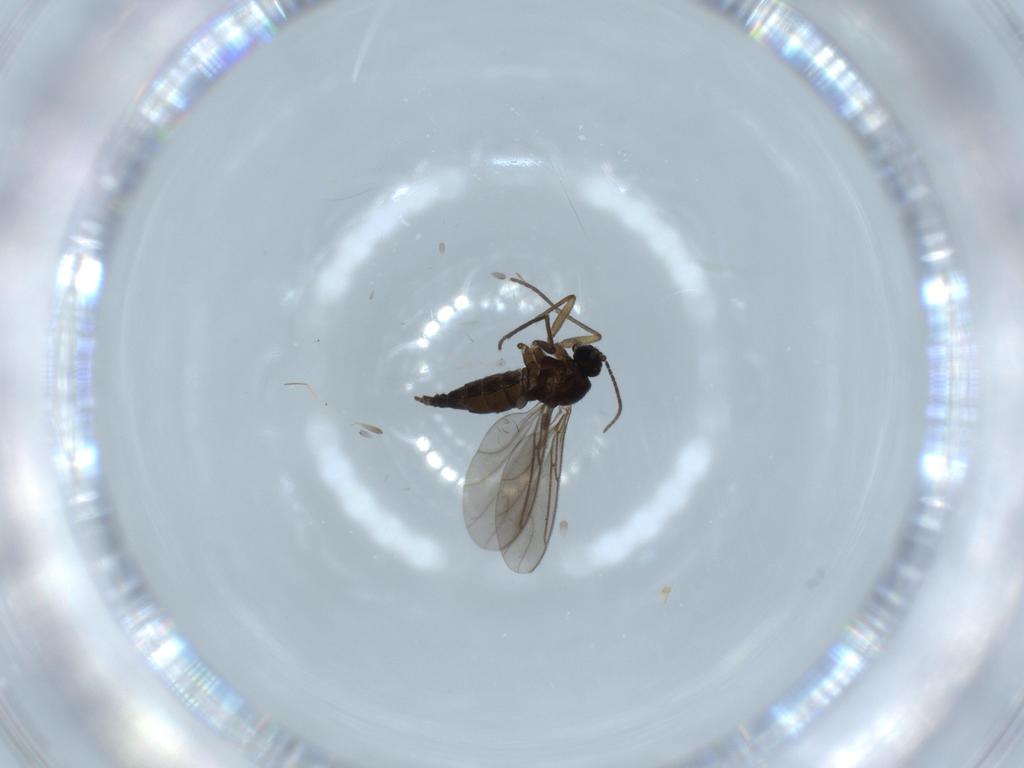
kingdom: Animalia
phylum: Arthropoda
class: Insecta
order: Diptera
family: Sciaridae
